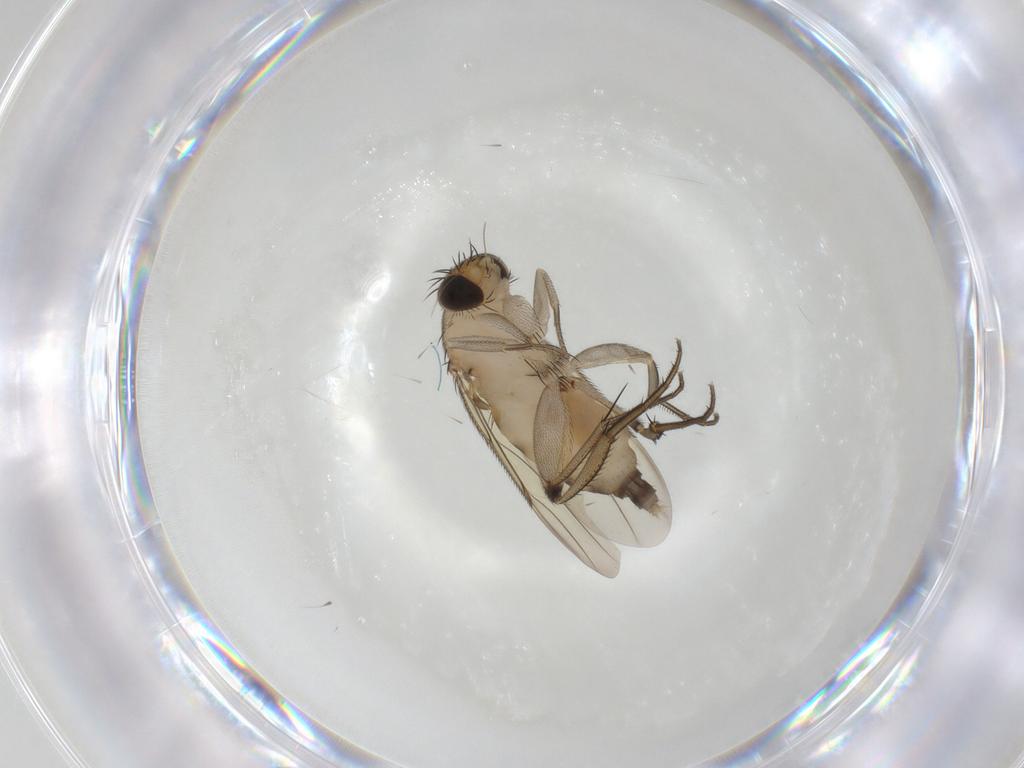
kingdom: Animalia
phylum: Arthropoda
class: Insecta
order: Diptera
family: Phoridae
